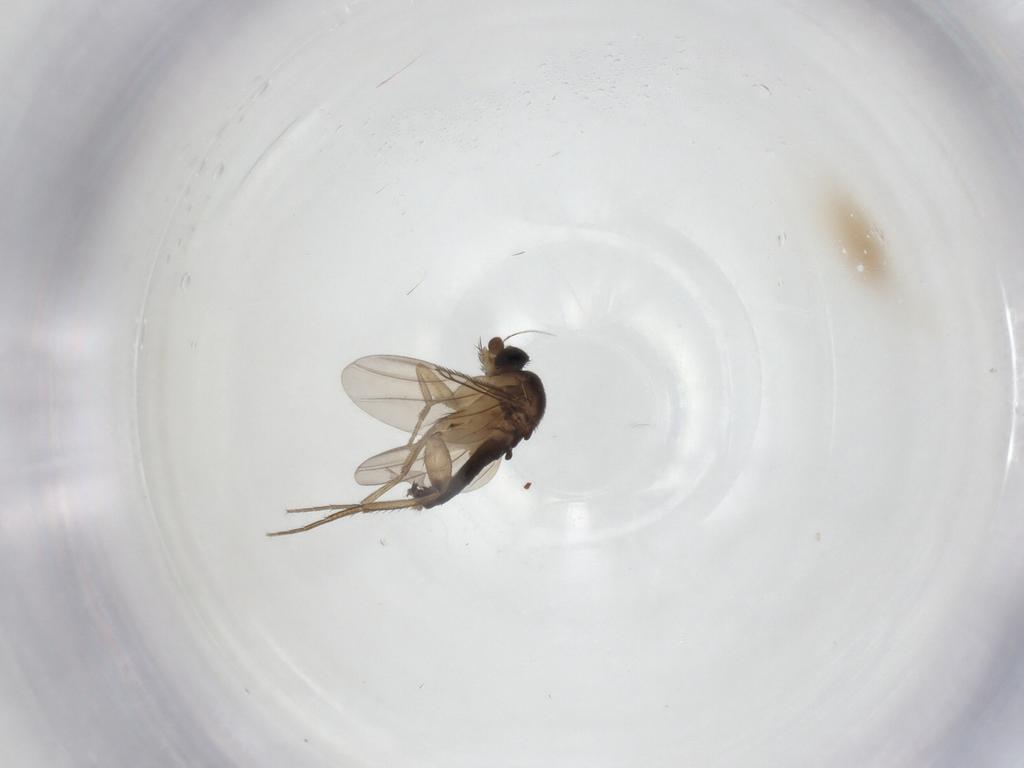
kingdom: Animalia
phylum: Arthropoda
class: Insecta
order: Diptera
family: Phoridae
